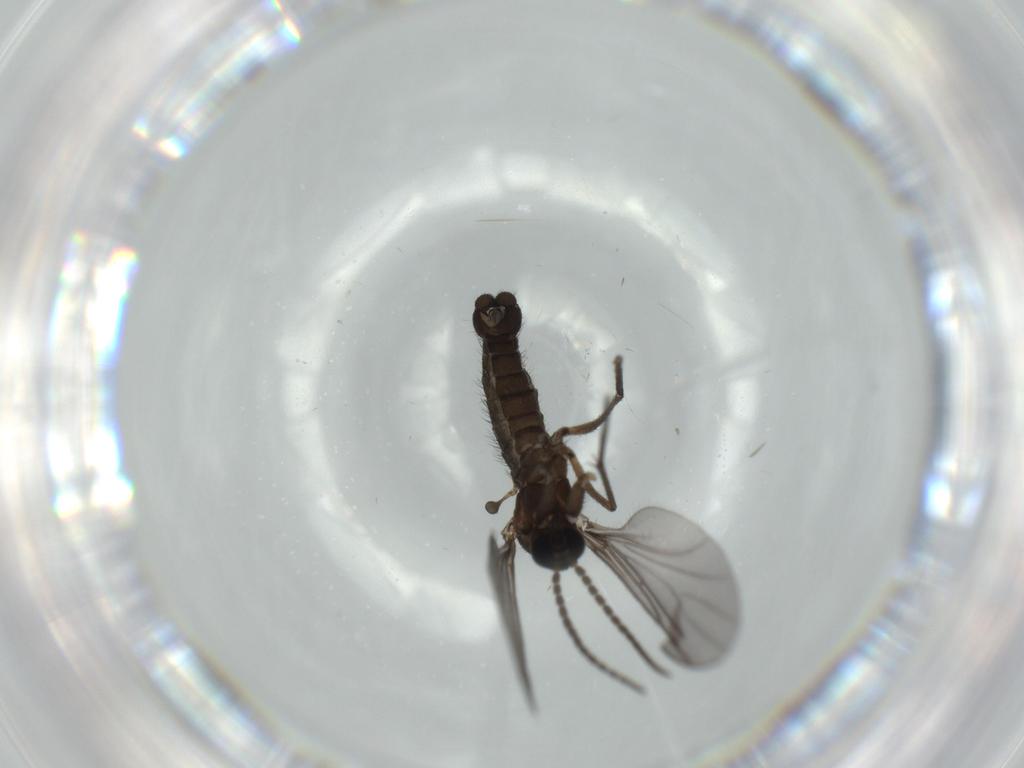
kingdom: Animalia
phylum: Arthropoda
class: Insecta
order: Diptera
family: Sciaridae
